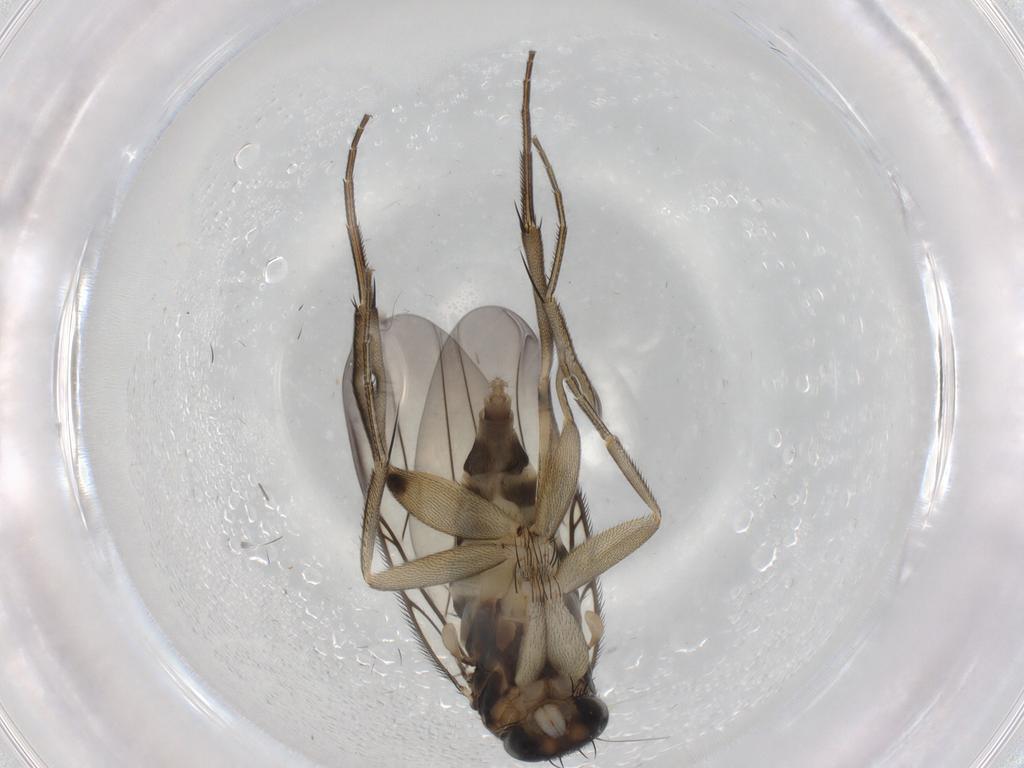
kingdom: Animalia
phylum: Arthropoda
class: Insecta
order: Diptera
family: Phoridae
